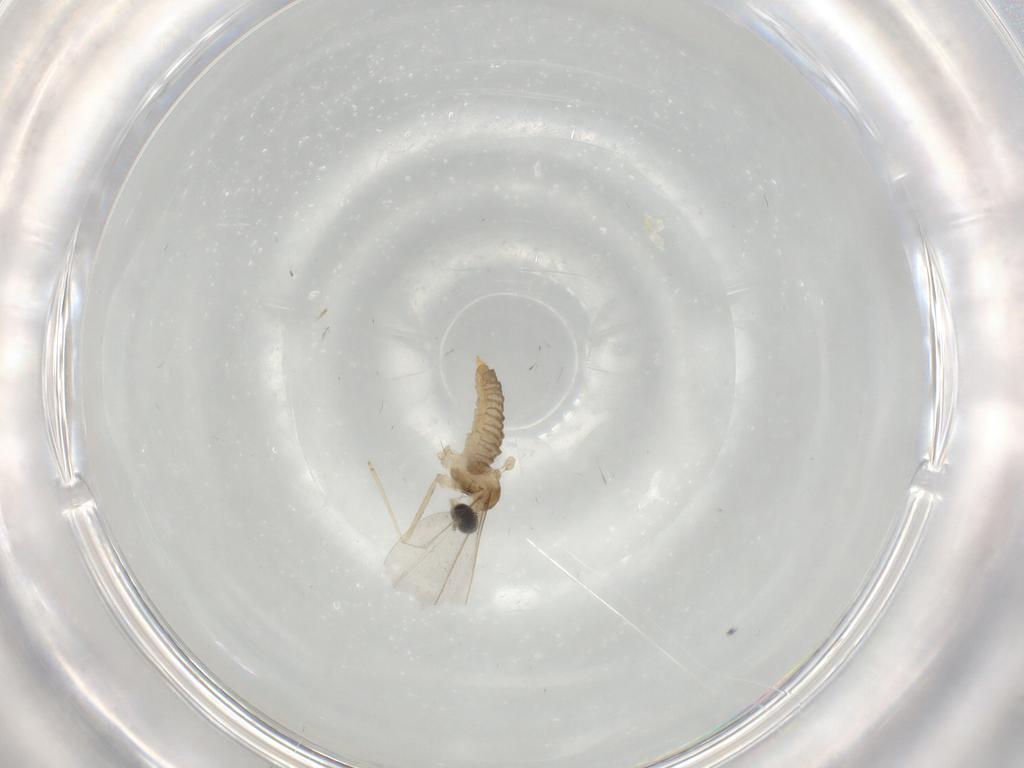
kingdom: Animalia
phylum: Arthropoda
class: Insecta
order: Diptera
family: Cecidomyiidae
